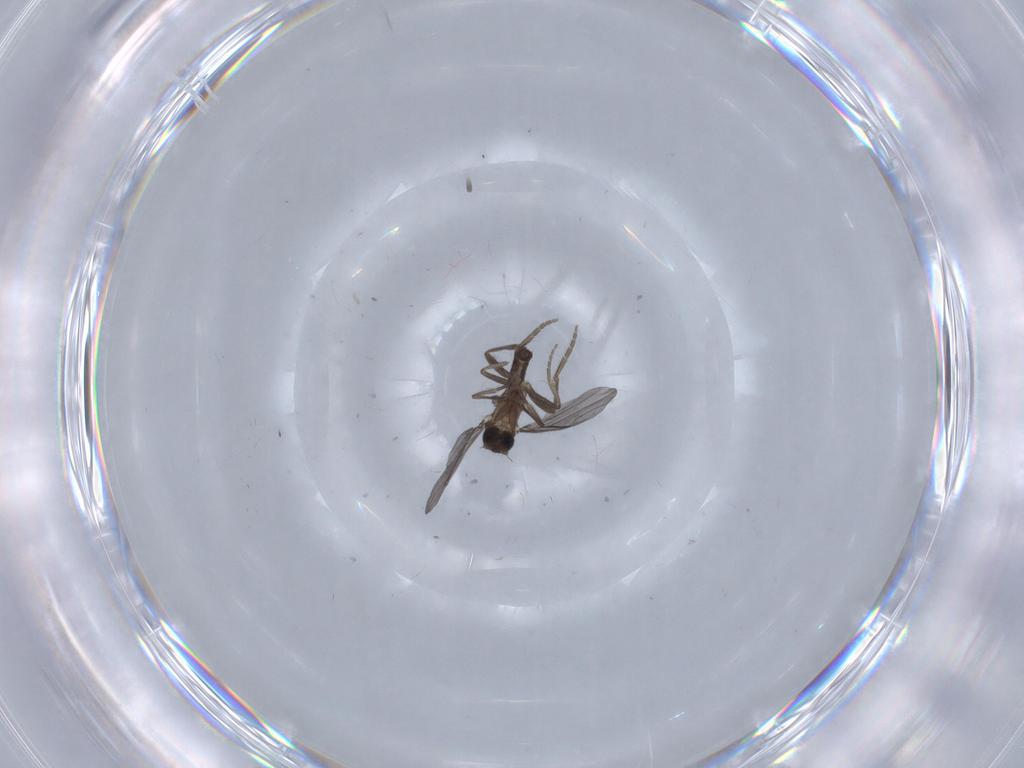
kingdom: Animalia
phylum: Arthropoda
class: Insecta
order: Diptera
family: Phoridae
